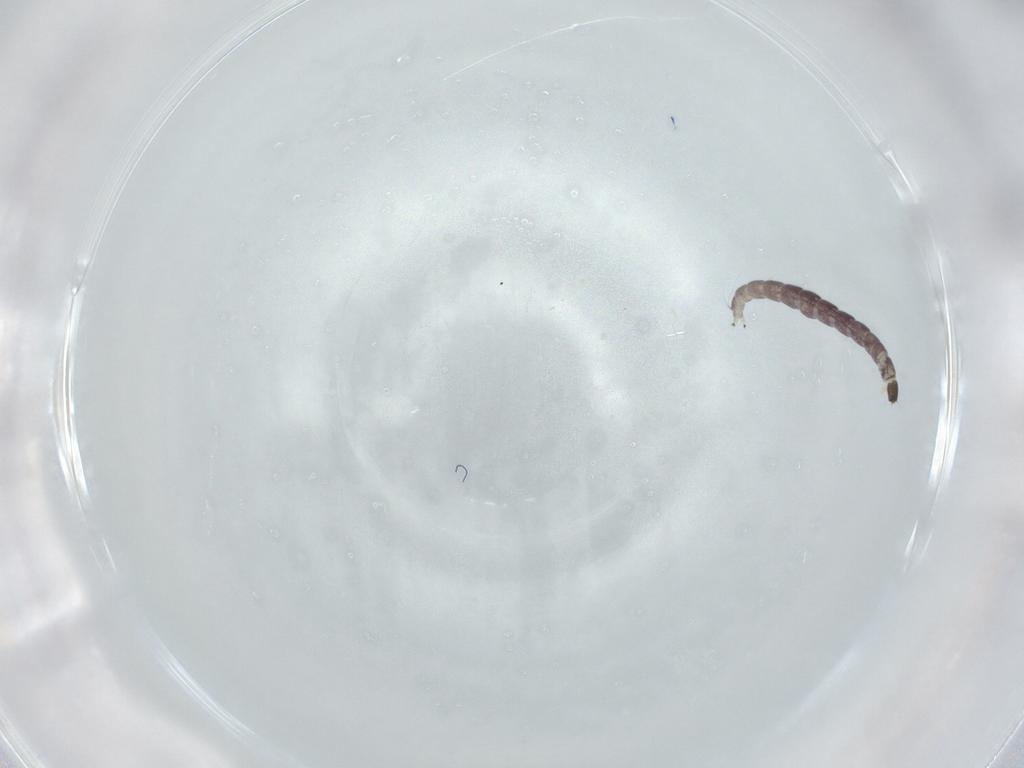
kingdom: Animalia
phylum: Arthropoda
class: Insecta
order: Diptera
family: Chironomidae
